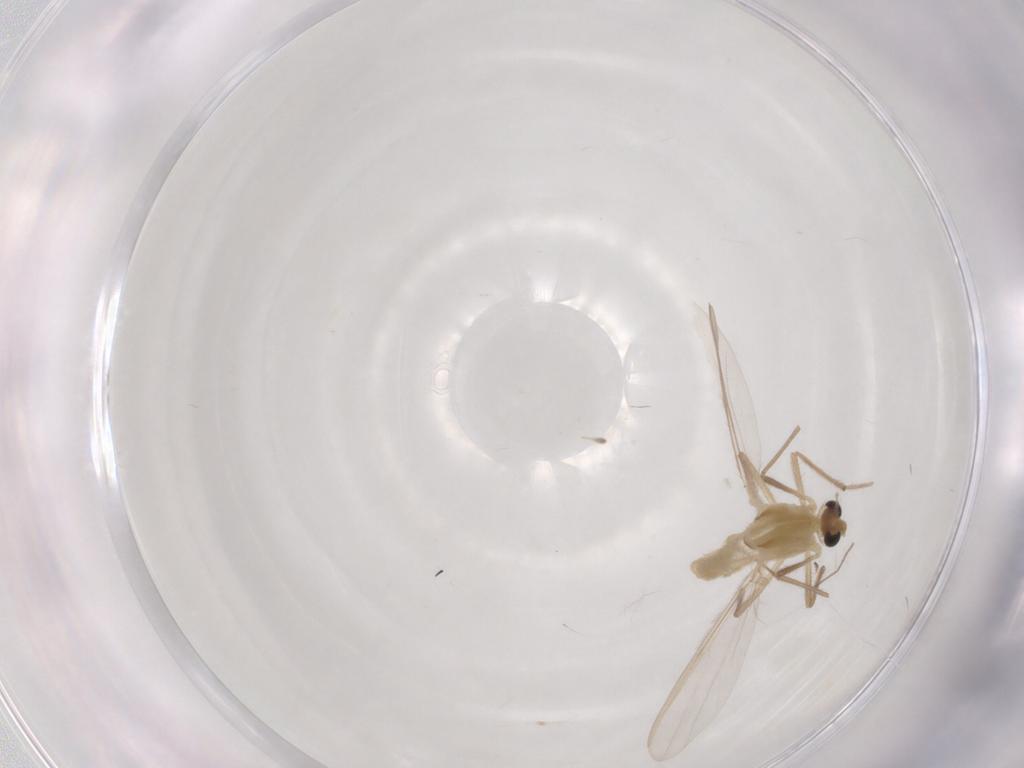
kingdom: Animalia
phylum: Arthropoda
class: Insecta
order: Diptera
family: Chironomidae
